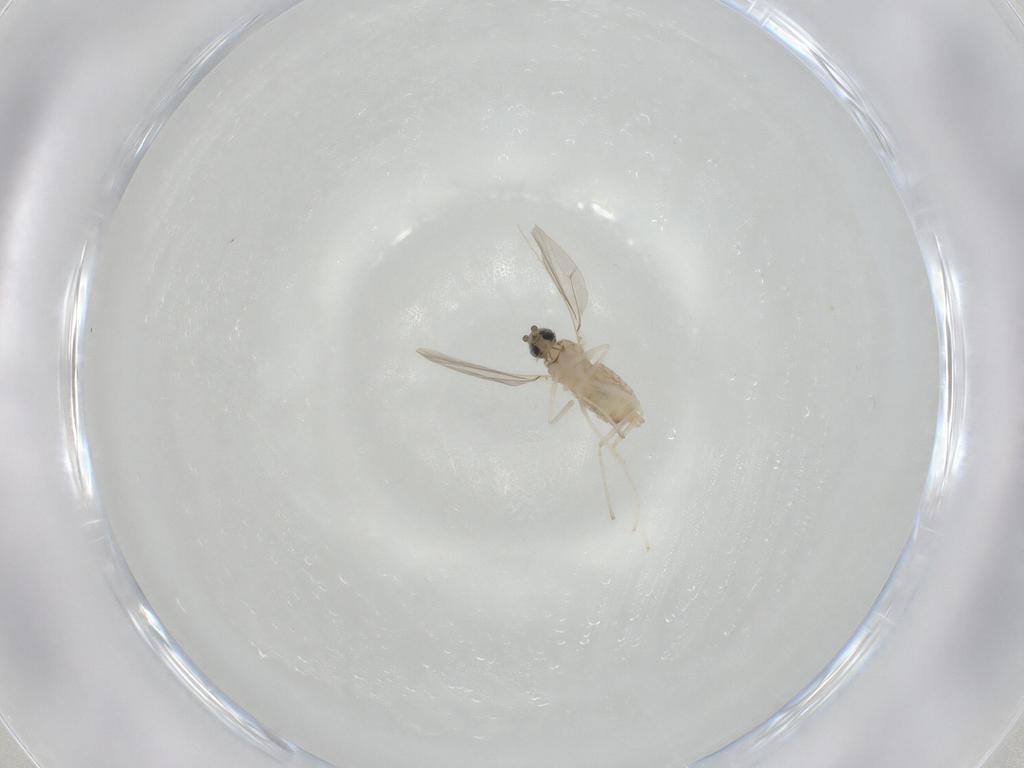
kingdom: Animalia
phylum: Arthropoda
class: Insecta
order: Diptera
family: Cecidomyiidae
